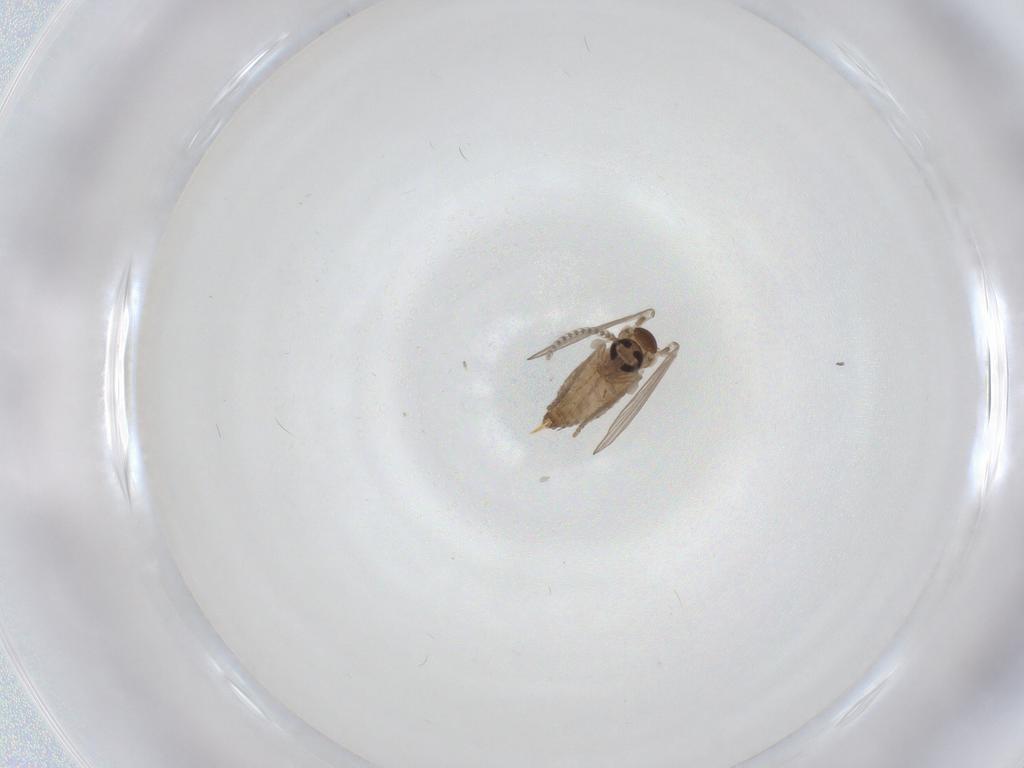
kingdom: Animalia
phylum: Arthropoda
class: Insecta
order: Diptera
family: Psychodidae
